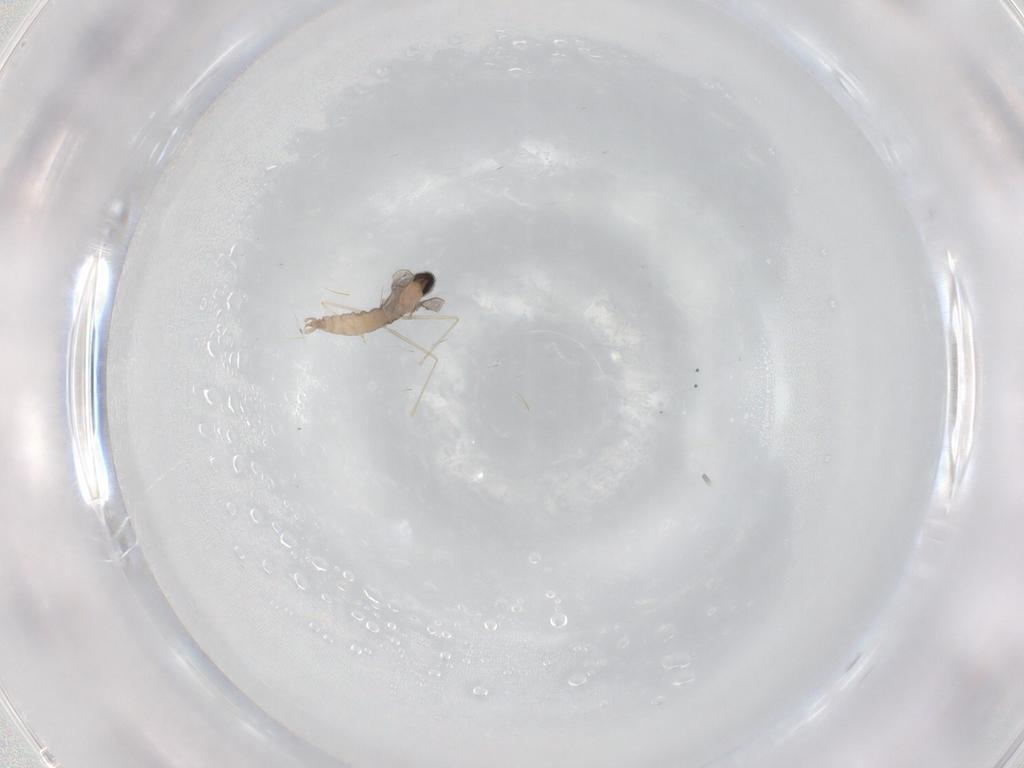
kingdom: Animalia
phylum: Arthropoda
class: Insecta
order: Diptera
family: Cecidomyiidae
